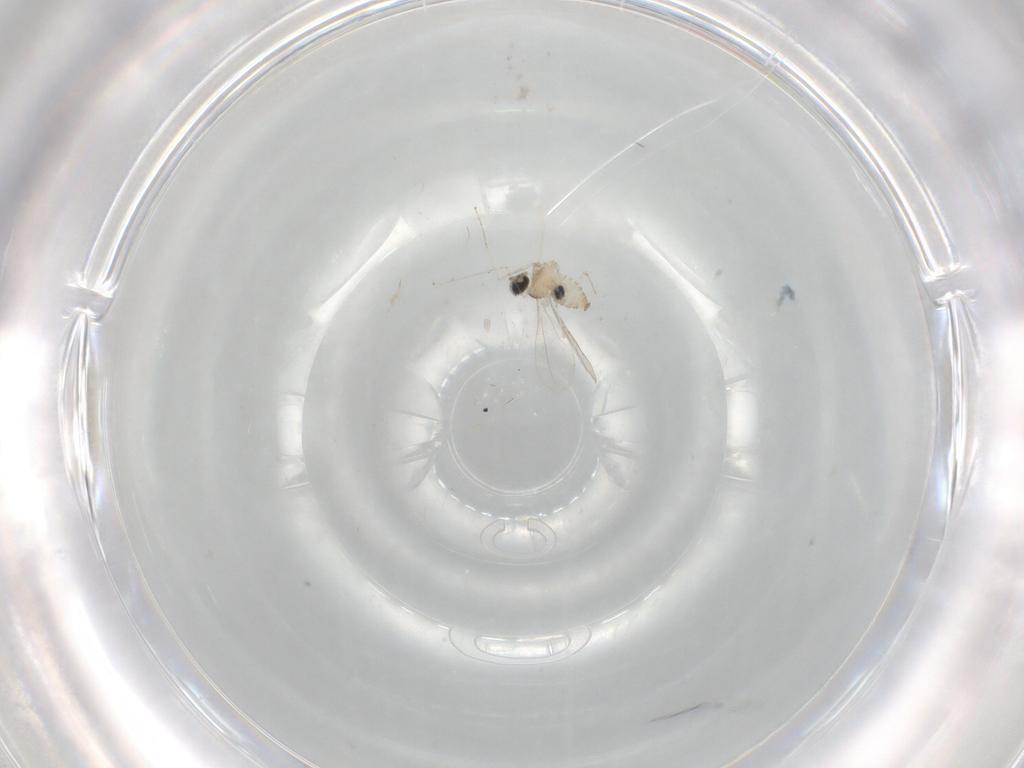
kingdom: Animalia
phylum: Arthropoda
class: Insecta
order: Diptera
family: Cecidomyiidae
